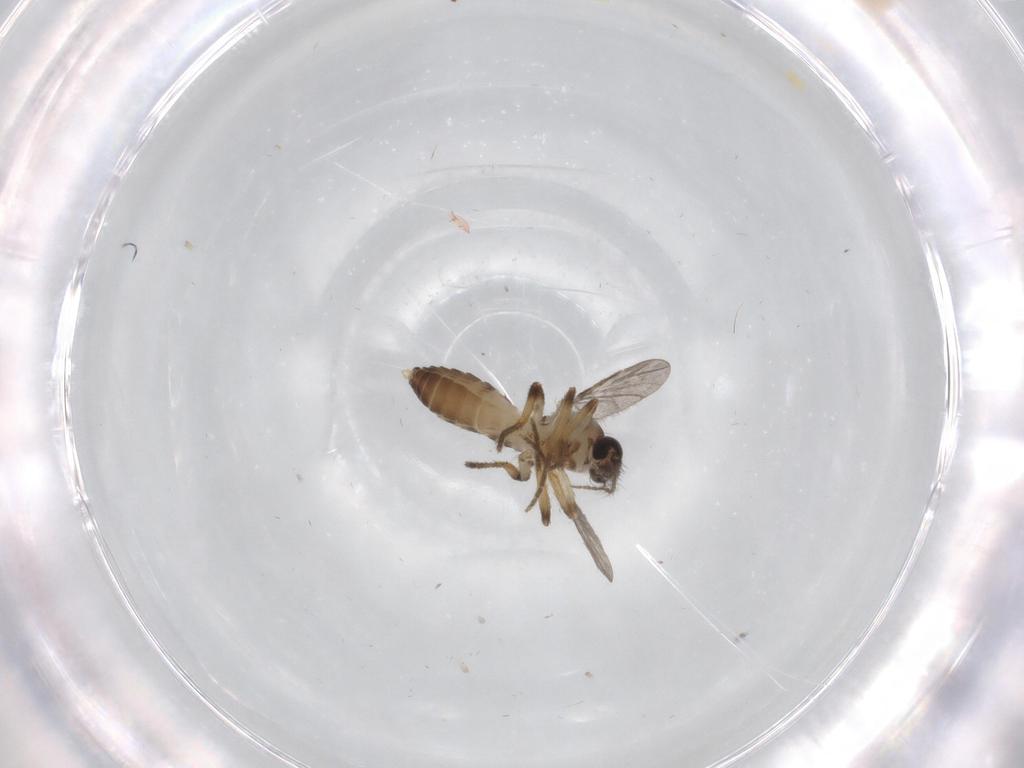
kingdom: Animalia
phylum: Arthropoda
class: Insecta
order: Diptera
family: Ceratopogonidae
